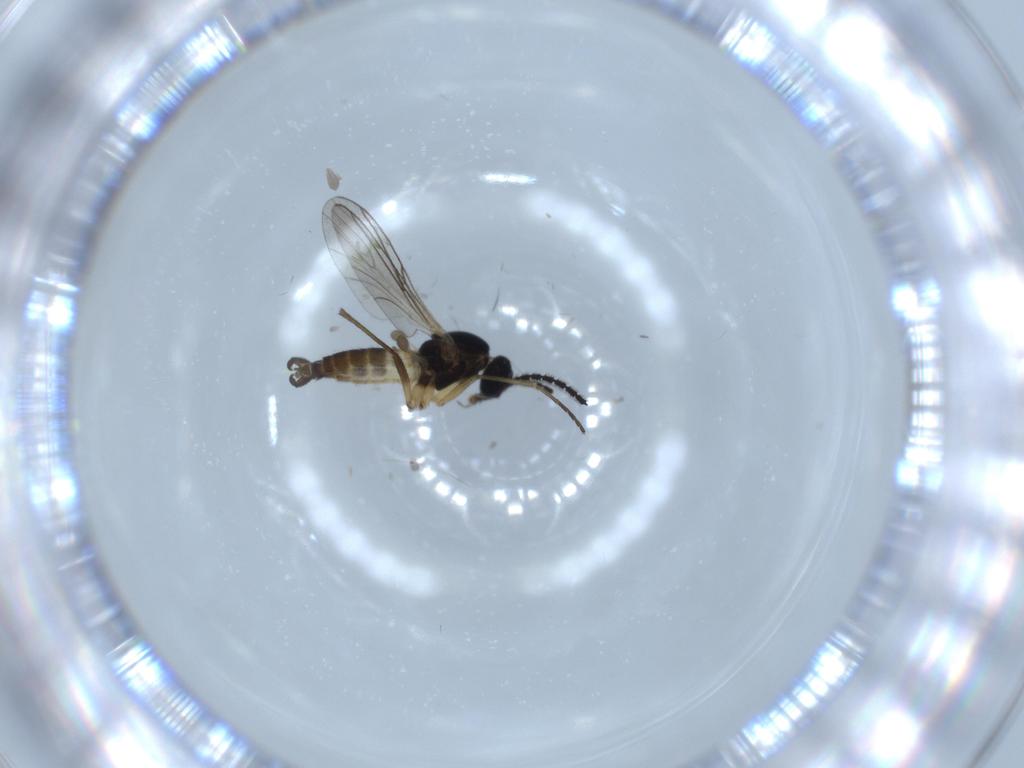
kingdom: Animalia
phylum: Arthropoda
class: Insecta
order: Diptera
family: Sciaridae
